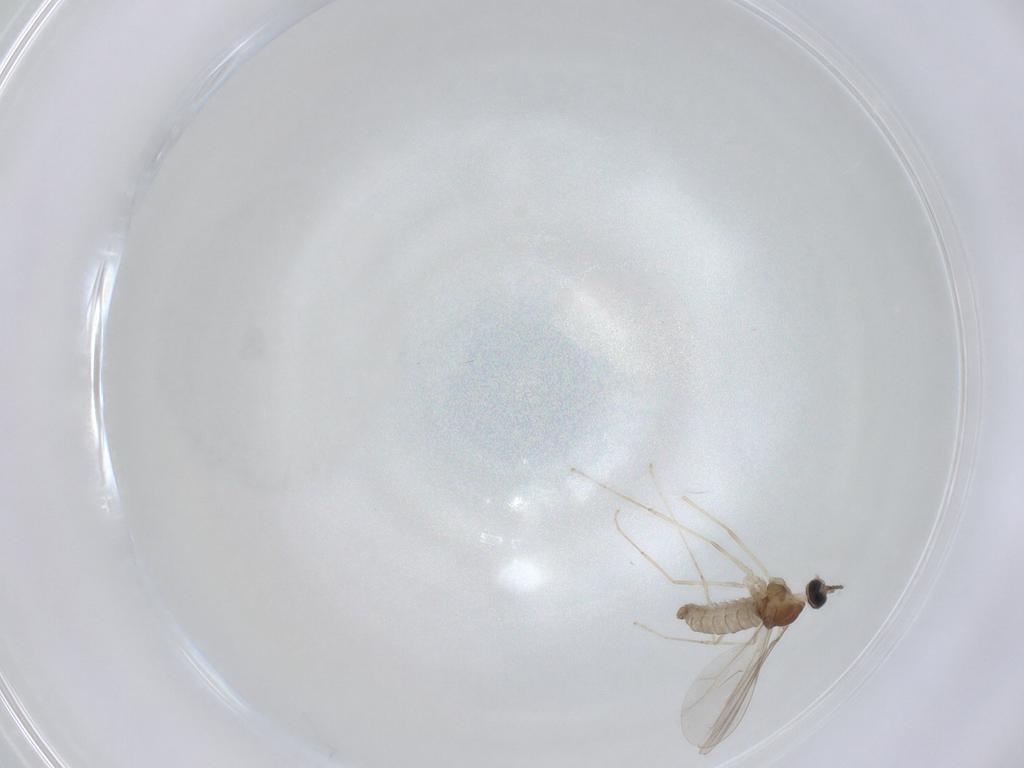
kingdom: Animalia
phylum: Arthropoda
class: Insecta
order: Diptera
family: Cecidomyiidae
